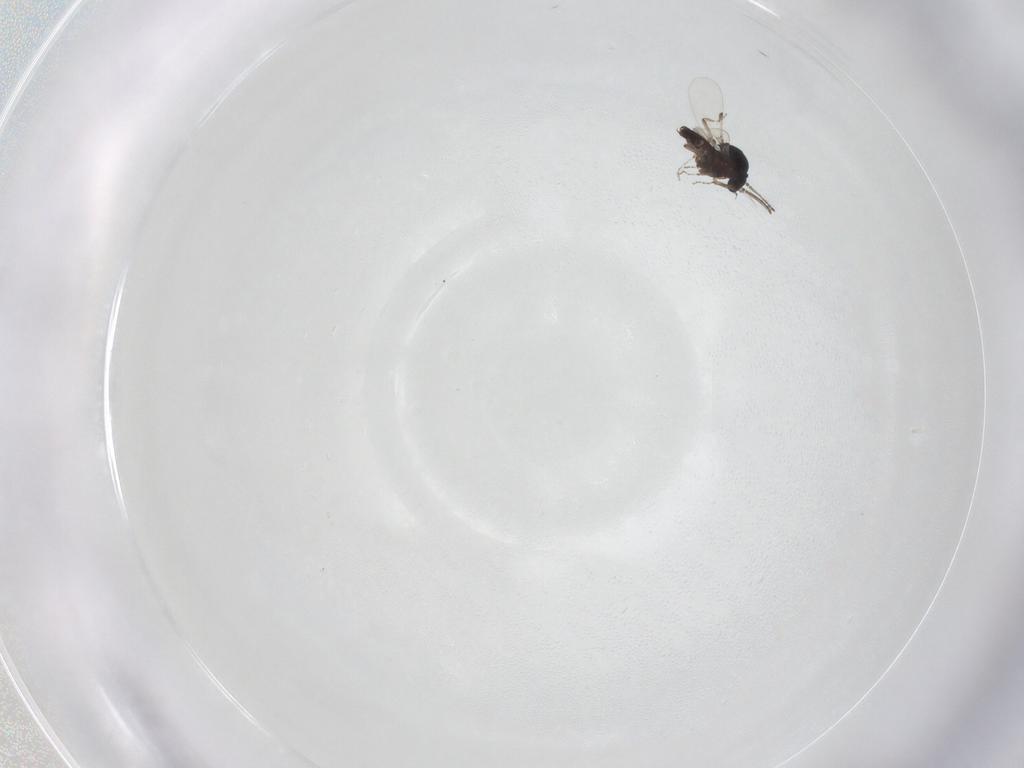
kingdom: Animalia
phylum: Arthropoda
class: Insecta
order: Diptera
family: Ceratopogonidae
